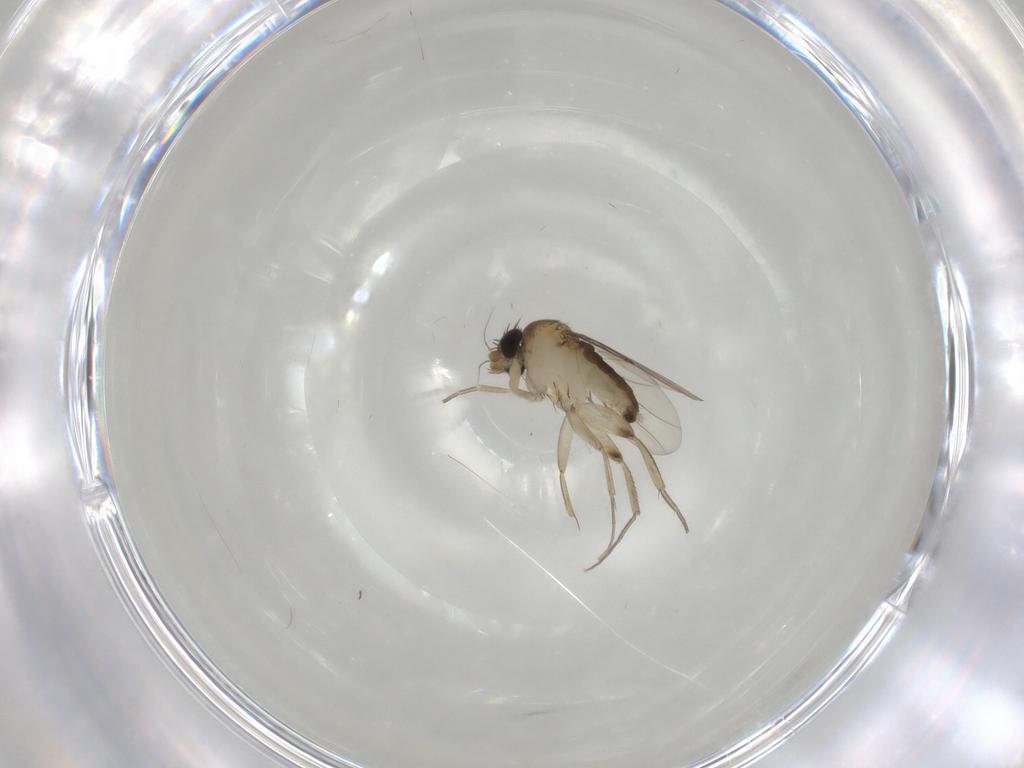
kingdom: Animalia
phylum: Arthropoda
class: Insecta
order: Diptera
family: Phoridae
